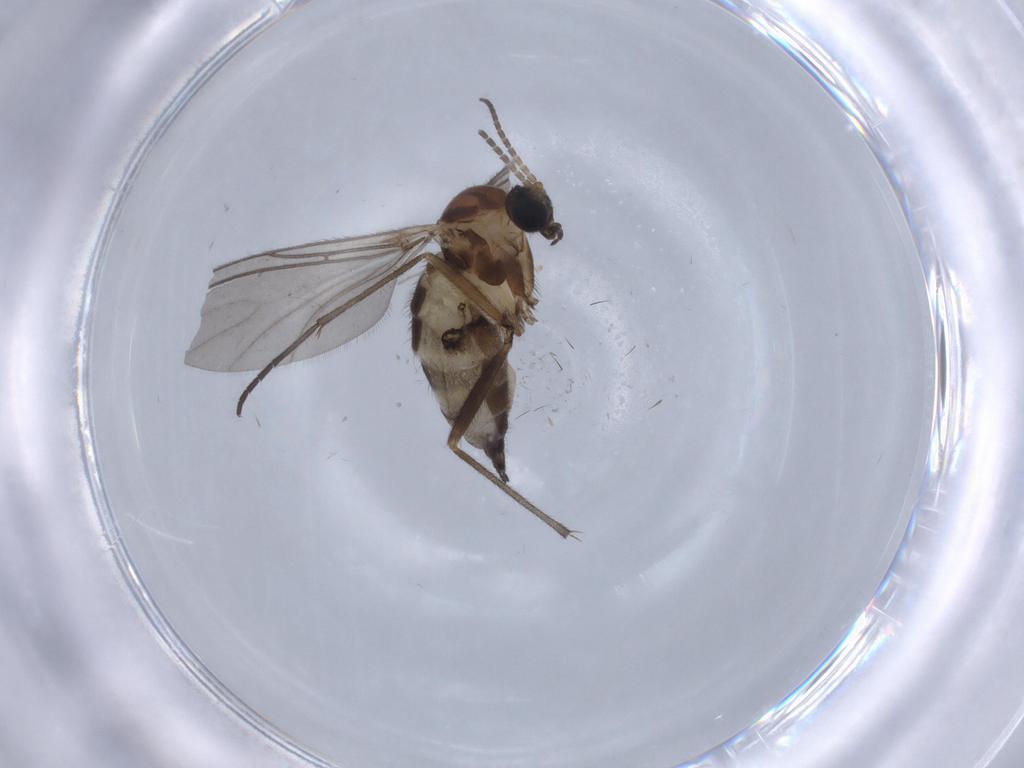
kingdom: Animalia
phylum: Arthropoda
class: Insecta
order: Diptera
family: Sciaridae
